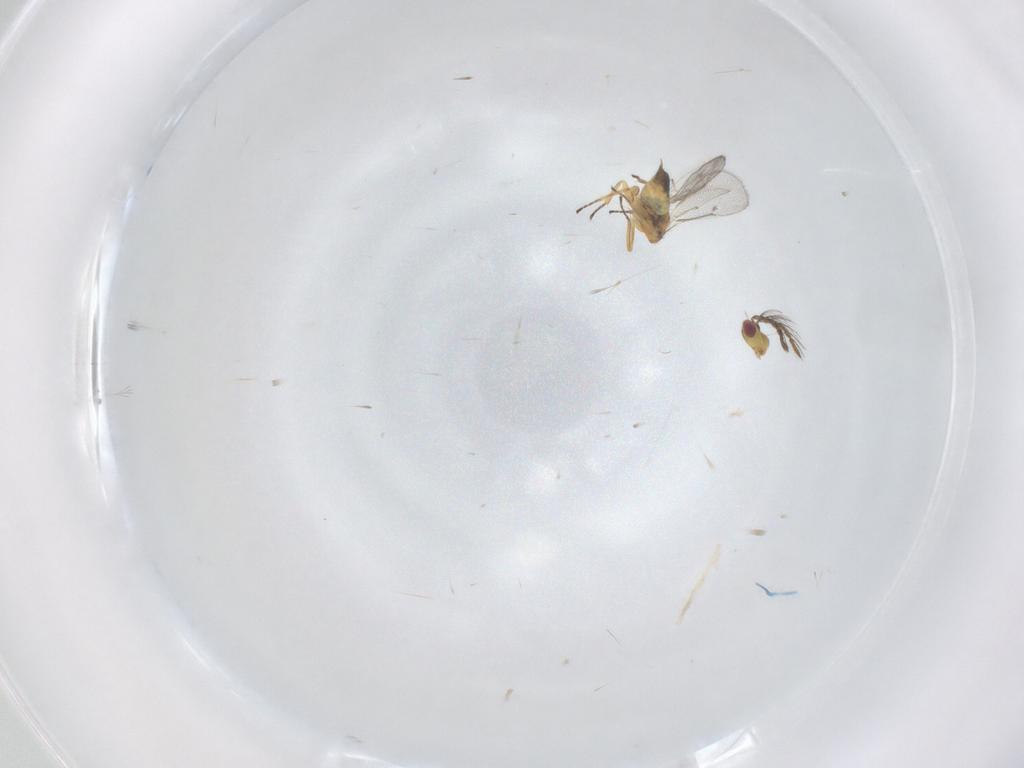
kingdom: Animalia
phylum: Arthropoda
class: Insecta
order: Hymenoptera
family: Eulophidae
